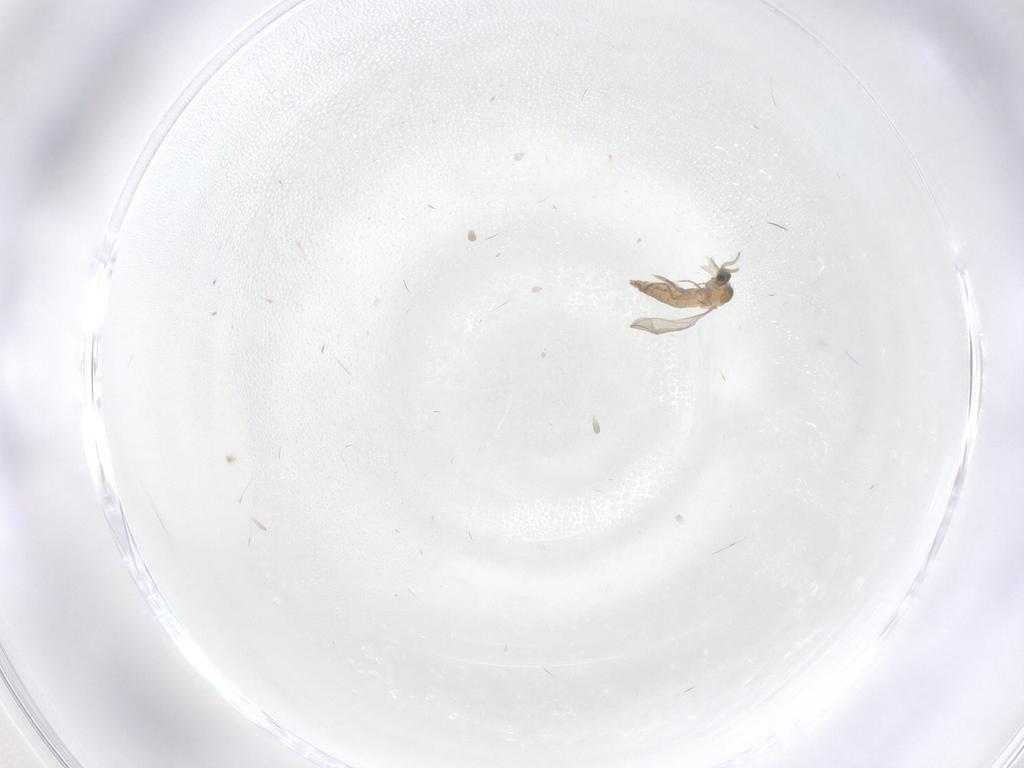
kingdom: Animalia
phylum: Arthropoda
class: Insecta
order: Diptera
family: Cecidomyiidae
